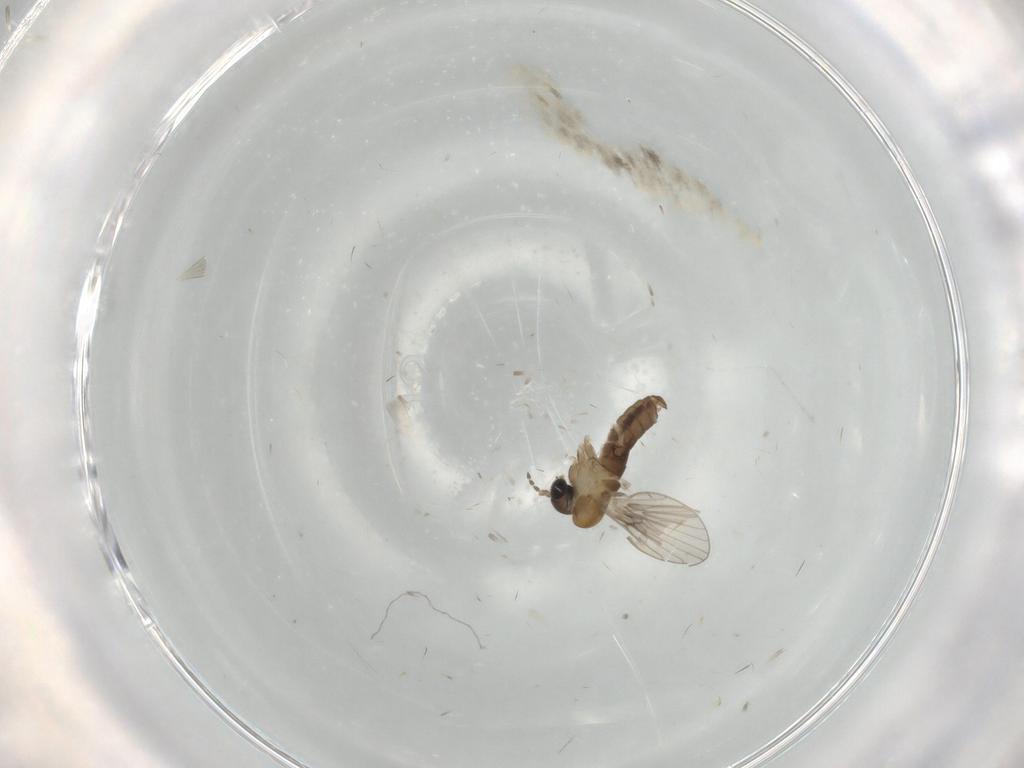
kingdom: Animalia
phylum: Arthropoda
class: Insecta
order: Diptera
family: Psychodidae
